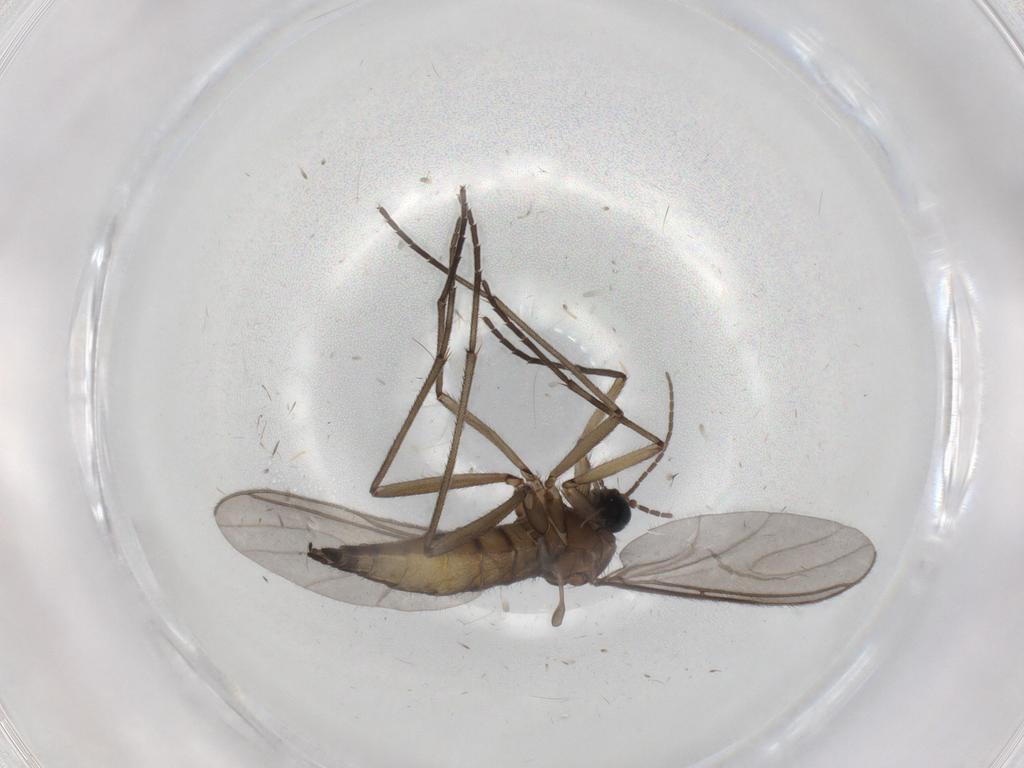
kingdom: Animalia
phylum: Arthropoda
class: Insecta
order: Diptera
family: Sciaridae
